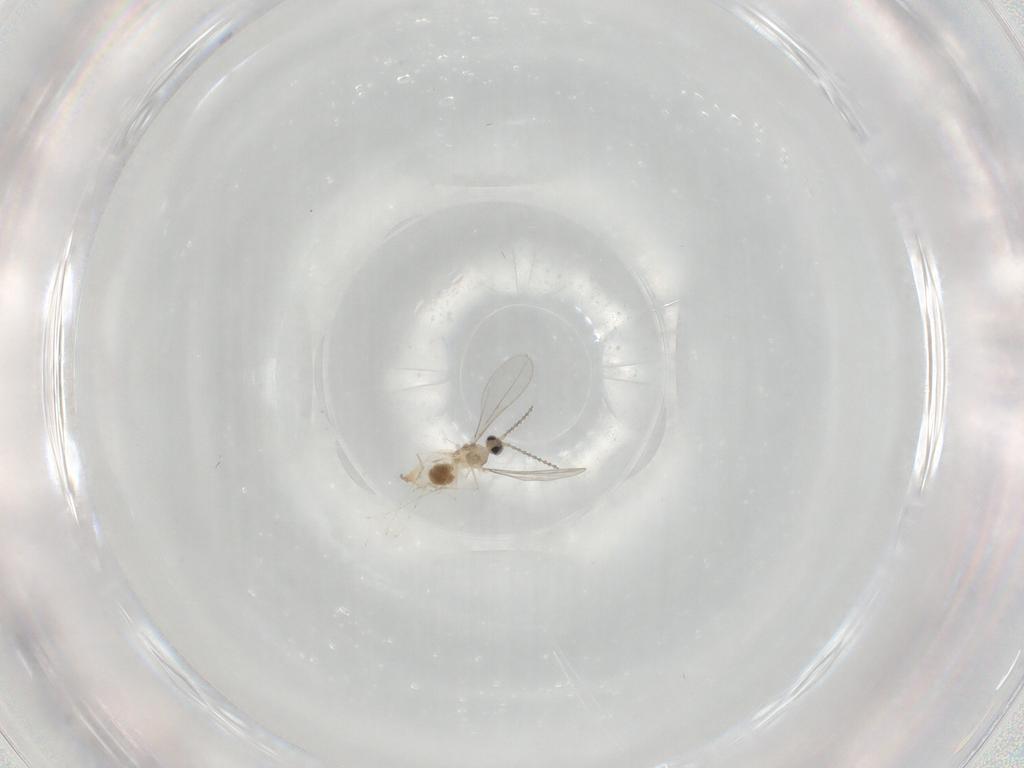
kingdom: Animalia
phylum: Arthropoda
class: Insecta
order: Diptera
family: Cecidomyiidae
